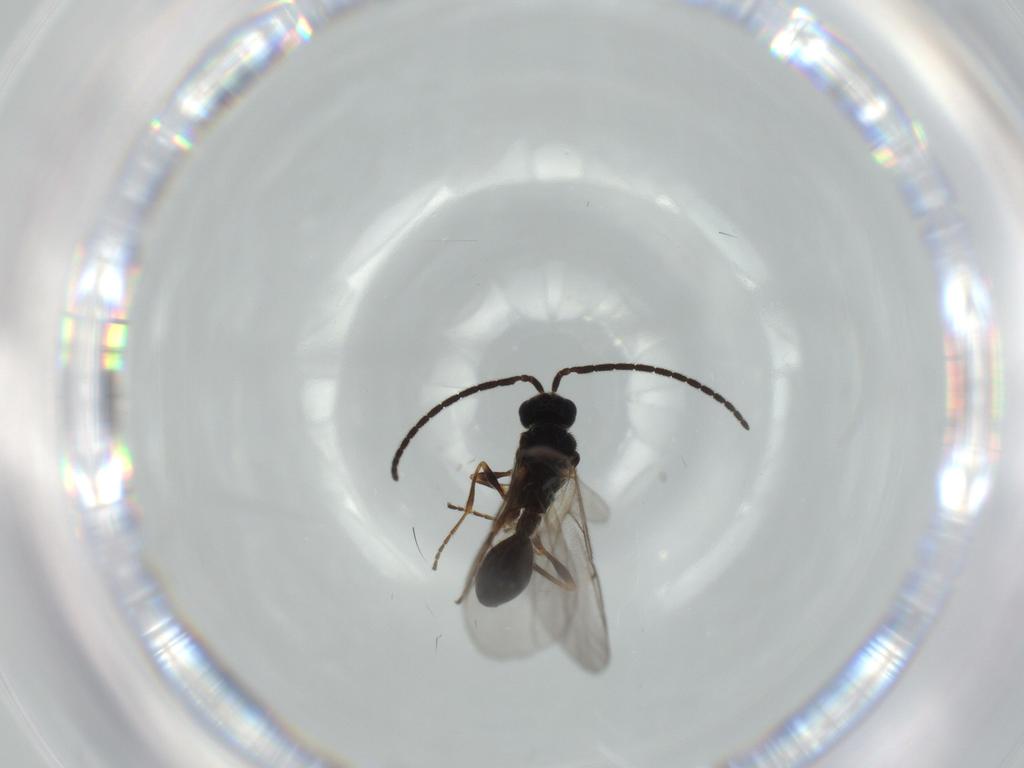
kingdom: Animalia
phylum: Arthropoda
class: Insecta
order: Hymenoptera
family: Diapriidae
